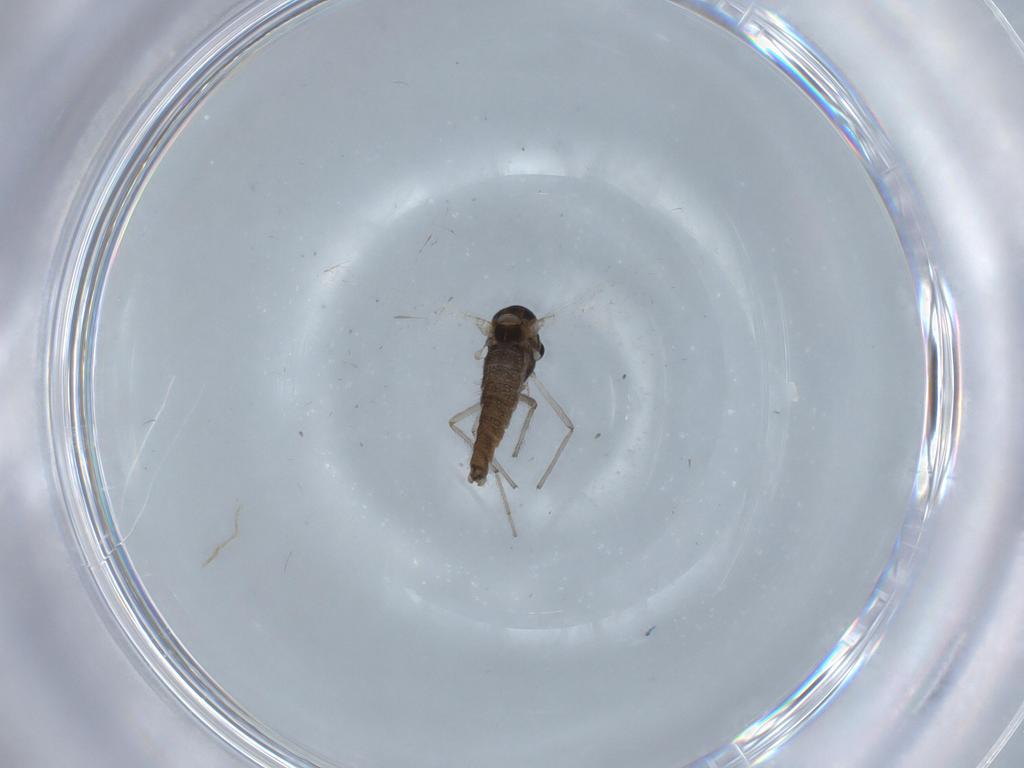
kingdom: Animalia
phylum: Arthropoda
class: Insecta
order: Diptera
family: Chironomidae
